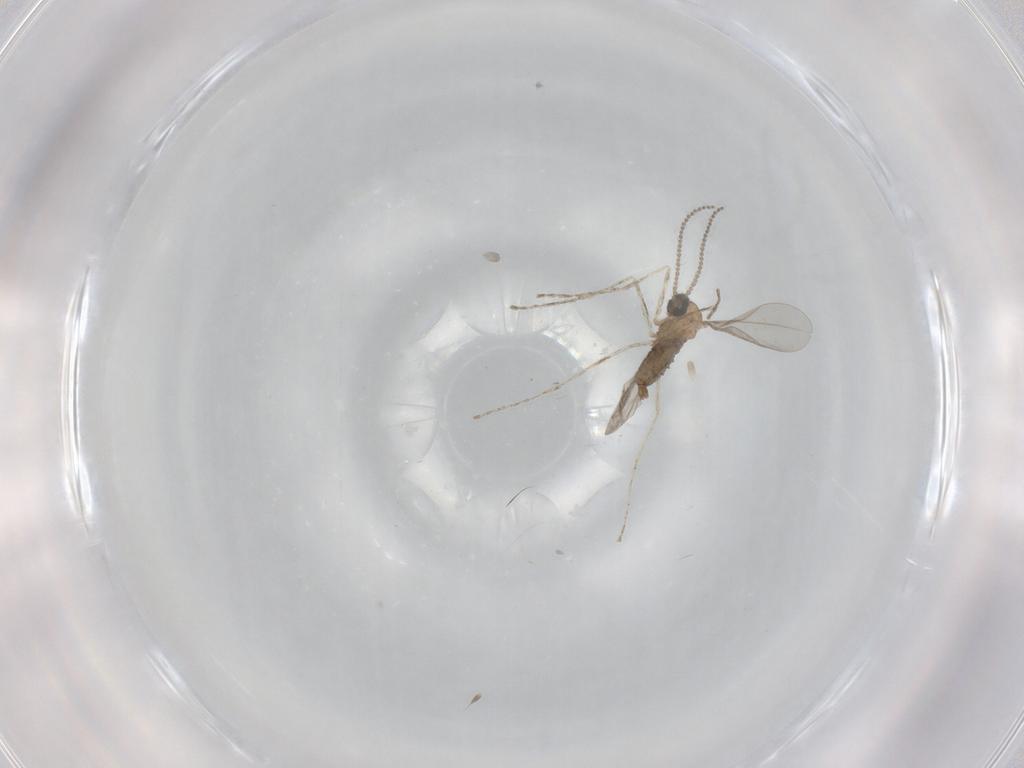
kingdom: Animalia
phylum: Arthropoda
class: Insecta
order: Diptera
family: Cecidomyiidae
